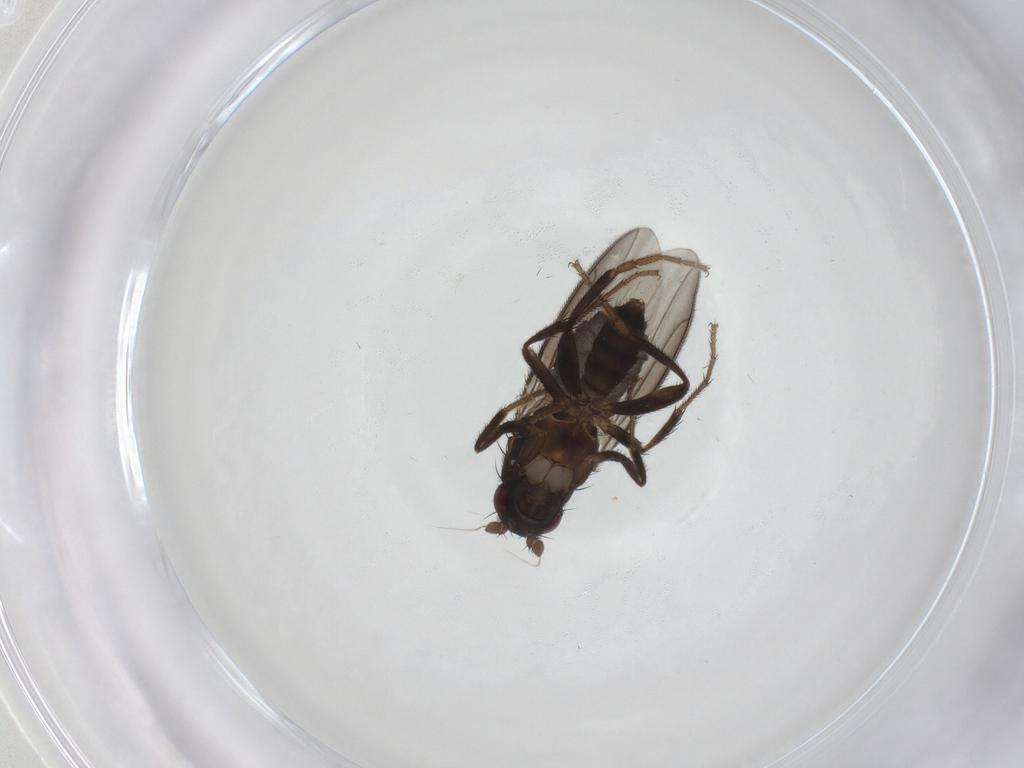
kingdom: Animalia
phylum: Arthropoda
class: Insecta
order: Diptera
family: Sphaeroceridae
